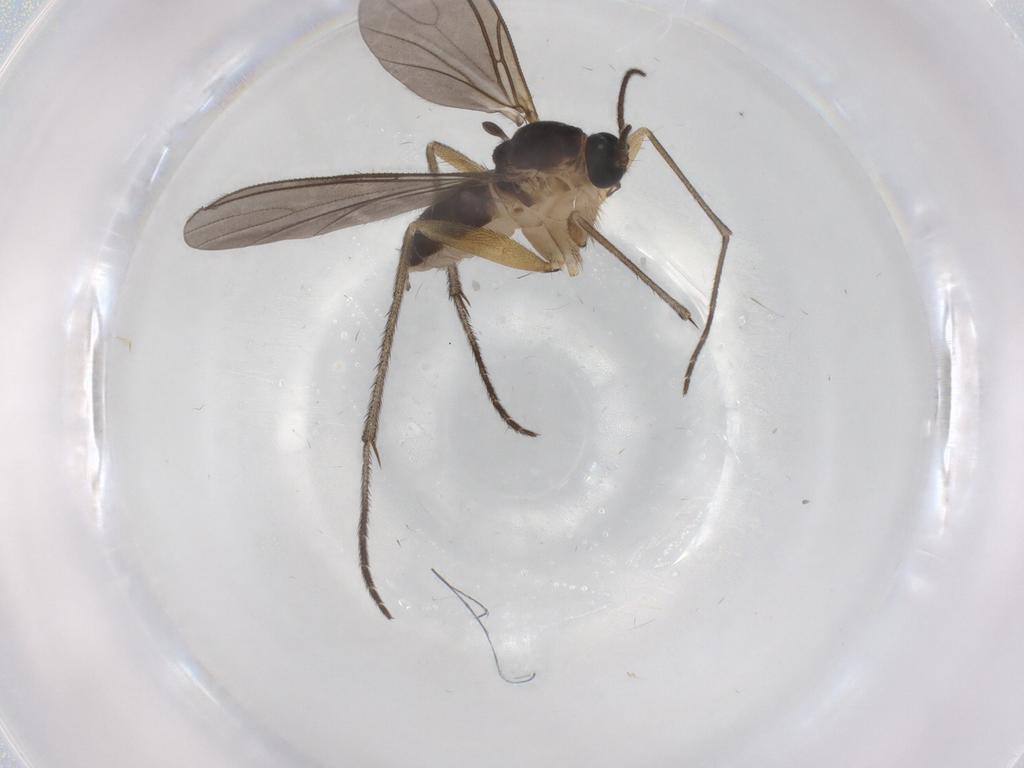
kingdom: Animalia
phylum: Arthropoda
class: Insecta
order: Diptera
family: Sciaridae
